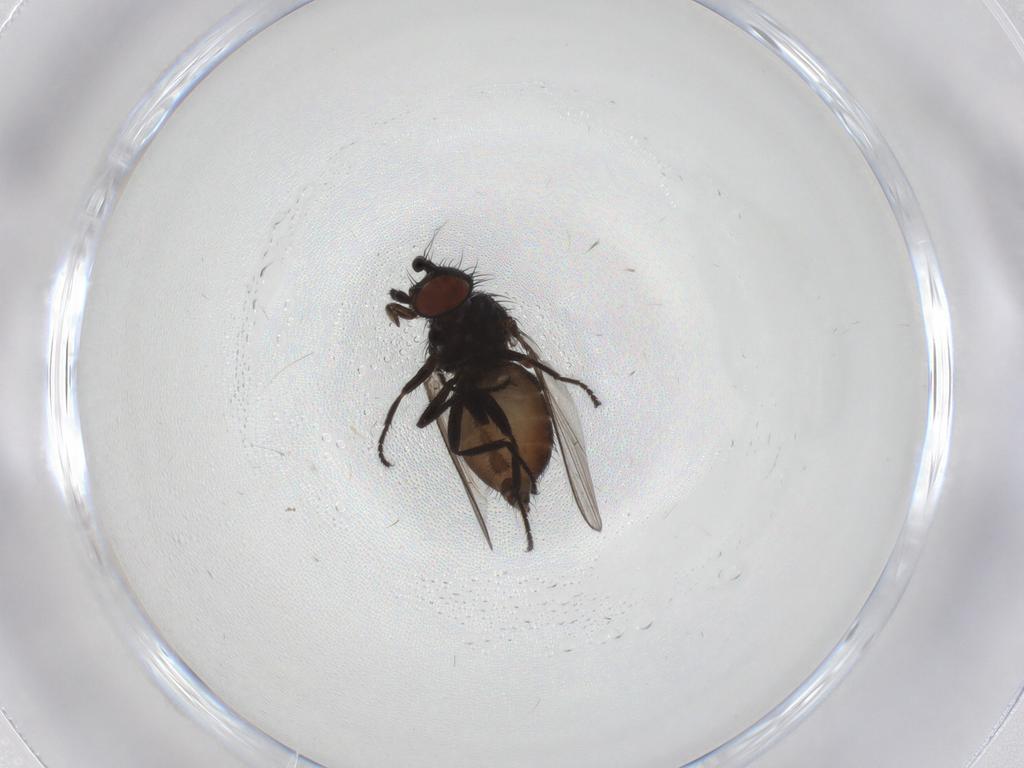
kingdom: Animalia
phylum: Arthropoda
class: Insecta
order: Diptera
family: Milichiidae
